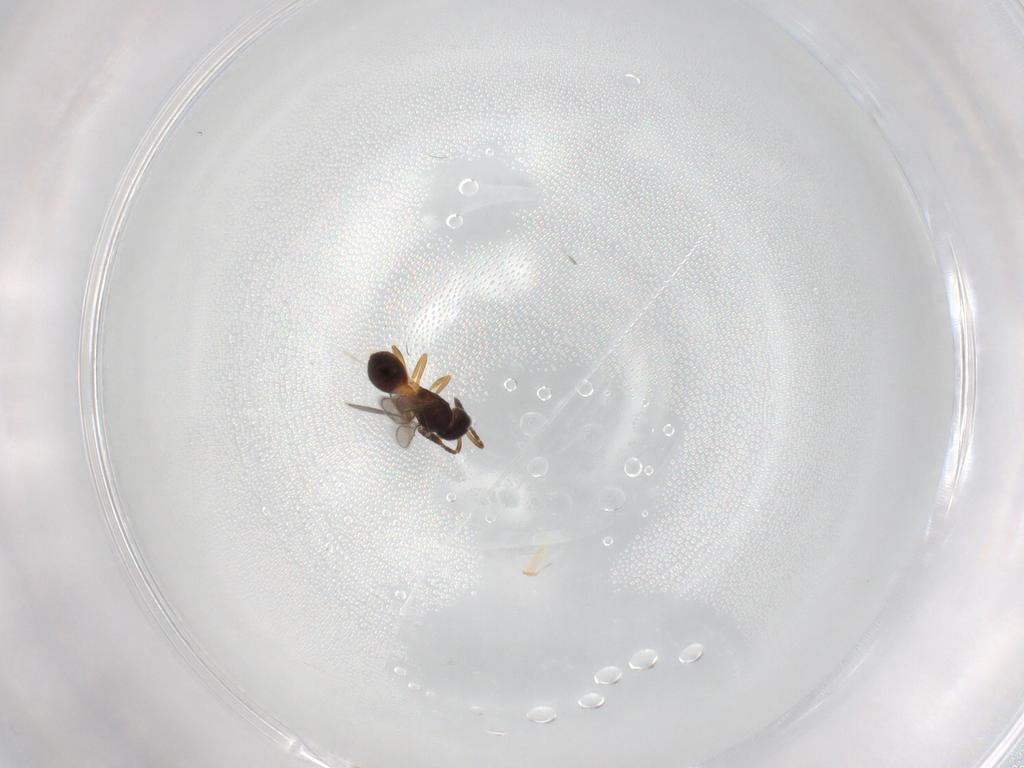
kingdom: Animalia
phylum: Arthropoda
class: Insecta
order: Hymenoptera
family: Scelionidae
